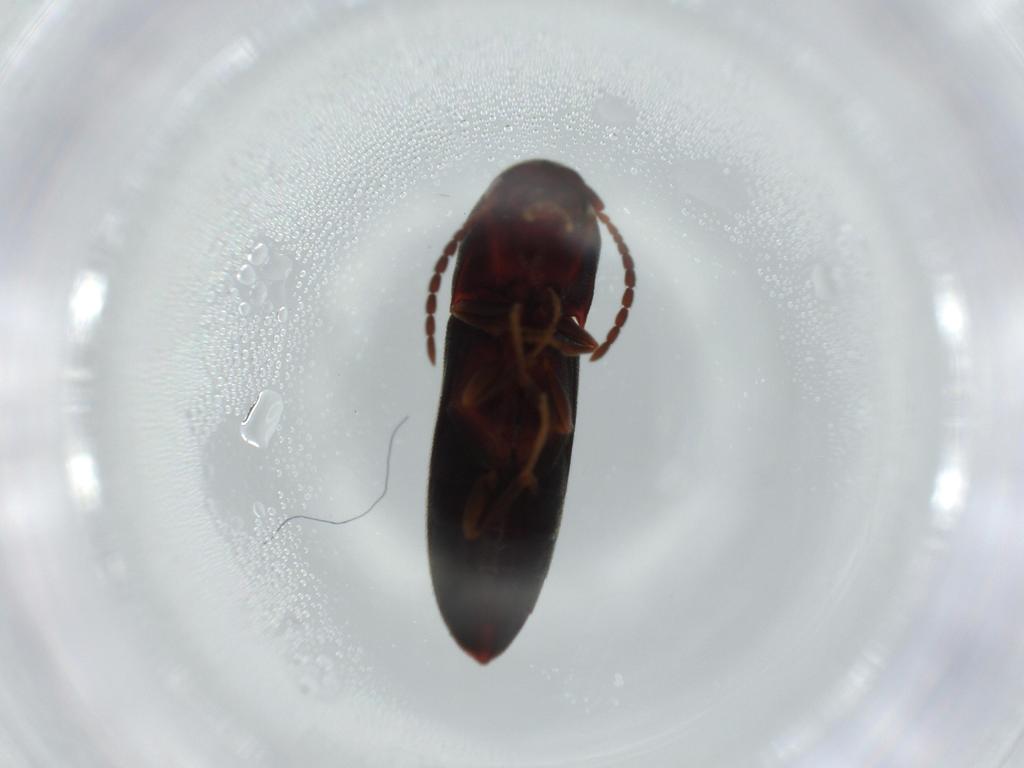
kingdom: Animalia
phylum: Arthropoda
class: Insecta
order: Coleoptera
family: Eucnemidae
